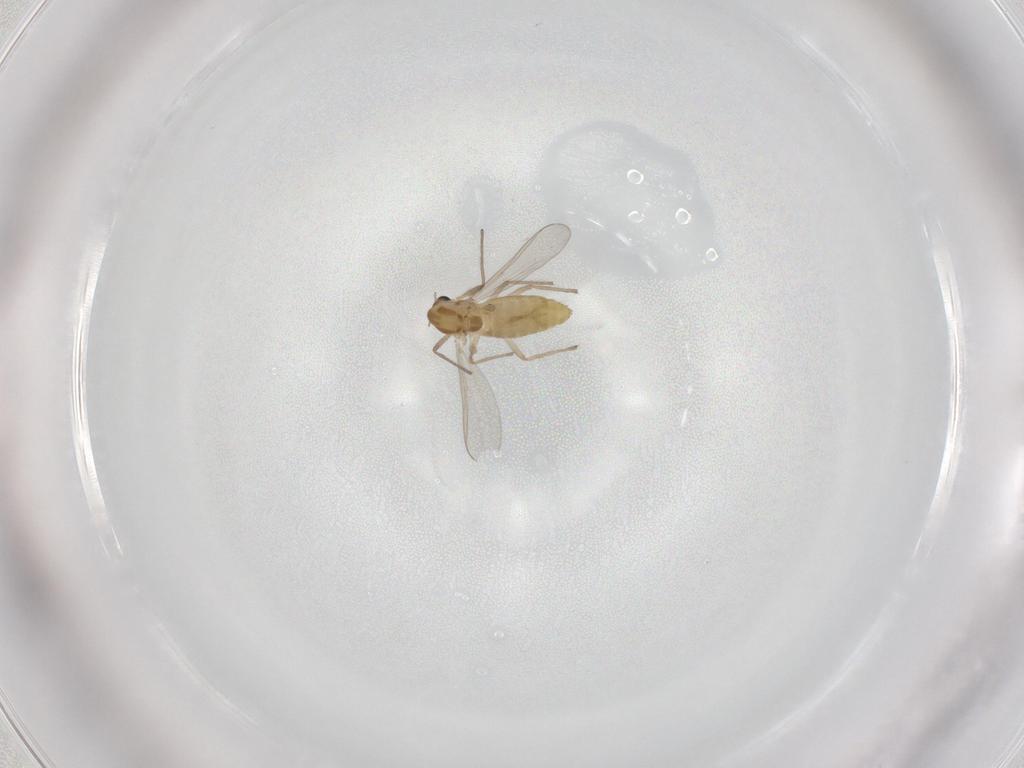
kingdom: Animalia
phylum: Arthropoda
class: Insecta
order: Diptera
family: Chironomidae
